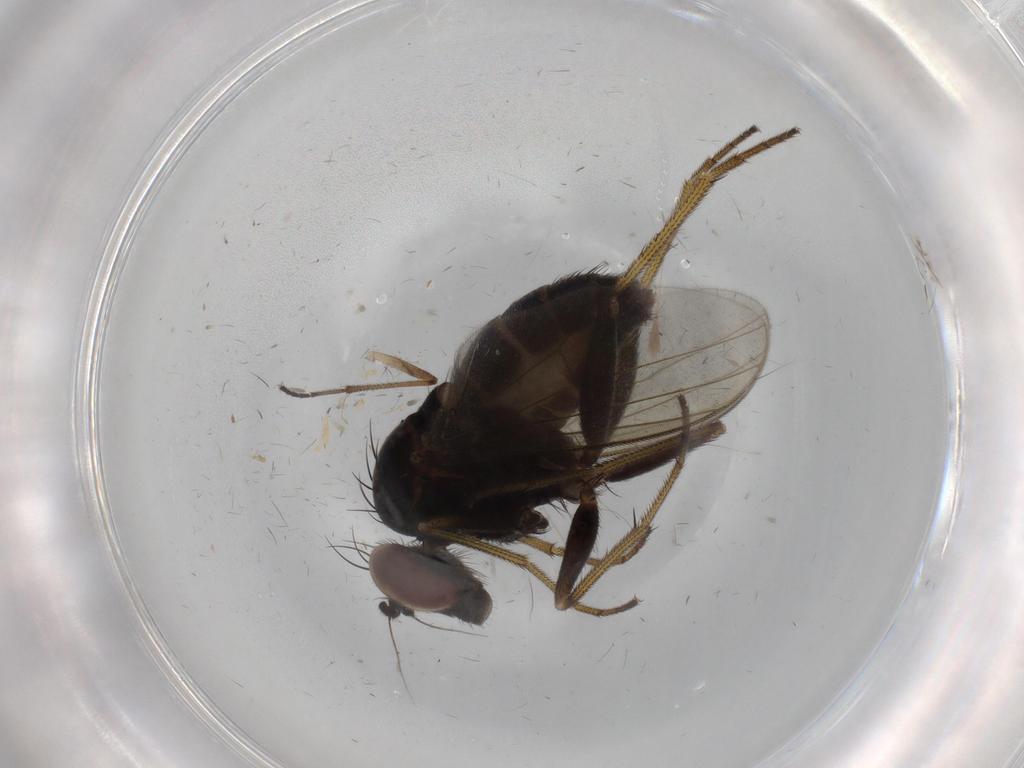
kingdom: Animalia
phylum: Arthropoda
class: Insecta
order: Diptera
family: Dolichopodidae
